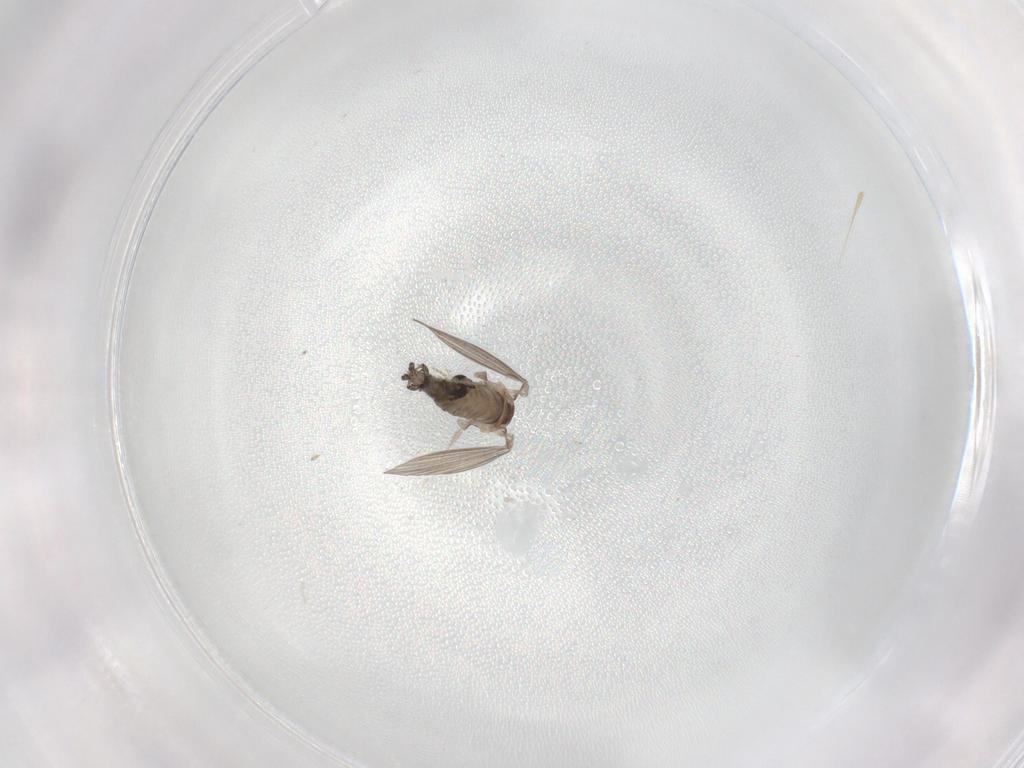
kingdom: Animalia
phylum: Arthropoda
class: Insecta
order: Diptera
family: Psychodidae
